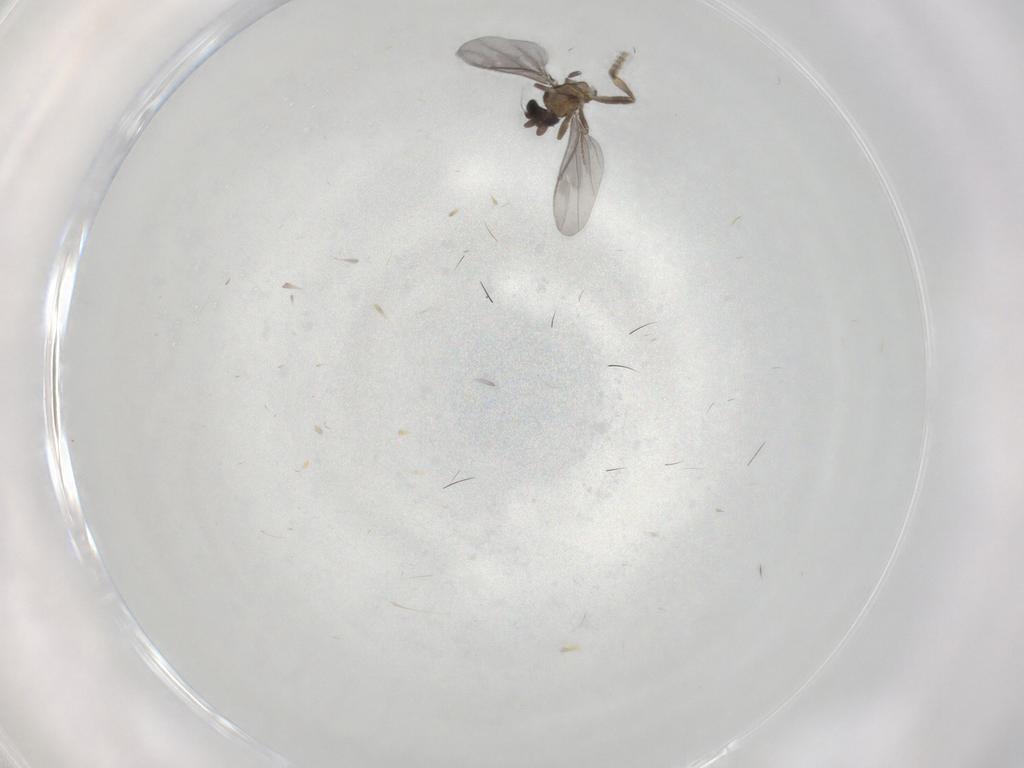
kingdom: Animalia
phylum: Arthropoda
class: Insecta
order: Diptera
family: Phoridae
